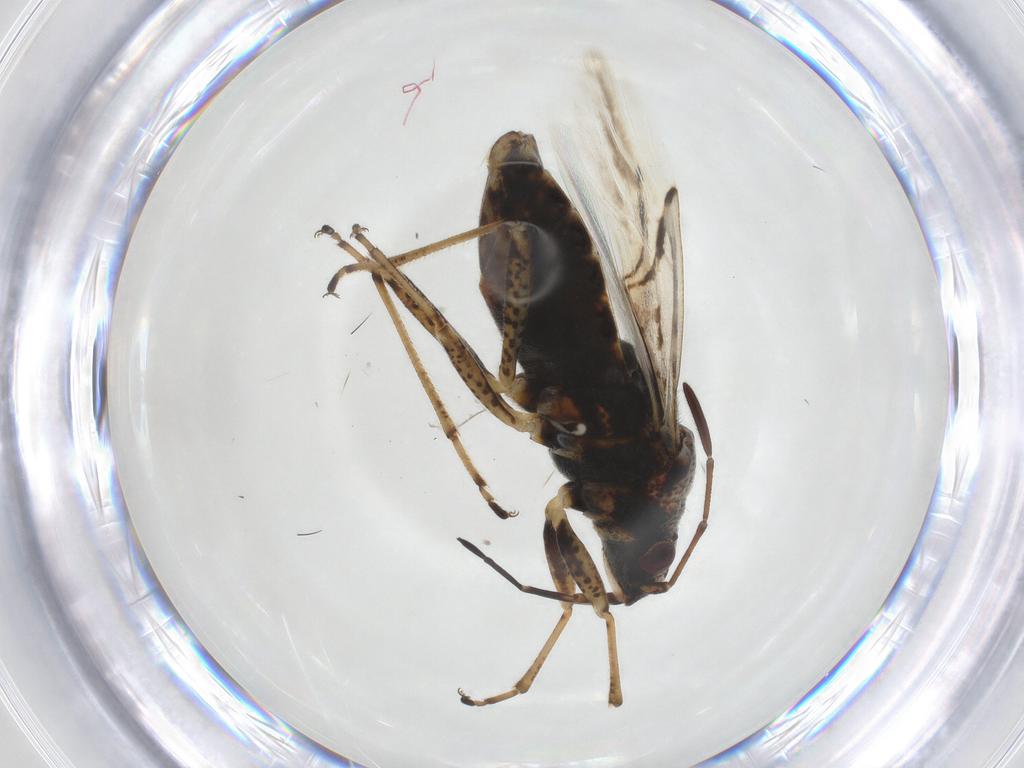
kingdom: Animalia
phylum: Arthropoda
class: Insecta
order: Hemiptera
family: Lygaeidae
